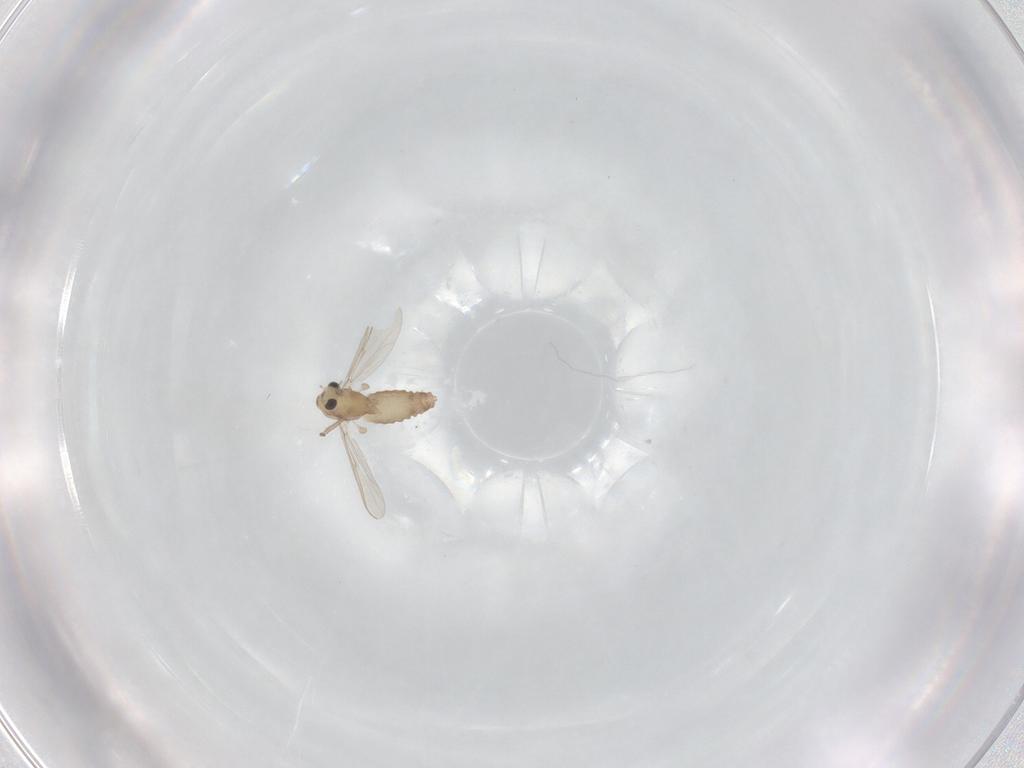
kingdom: Animalia
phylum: Arthropoda
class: Insecta
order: Diptera
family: Chironomidae
